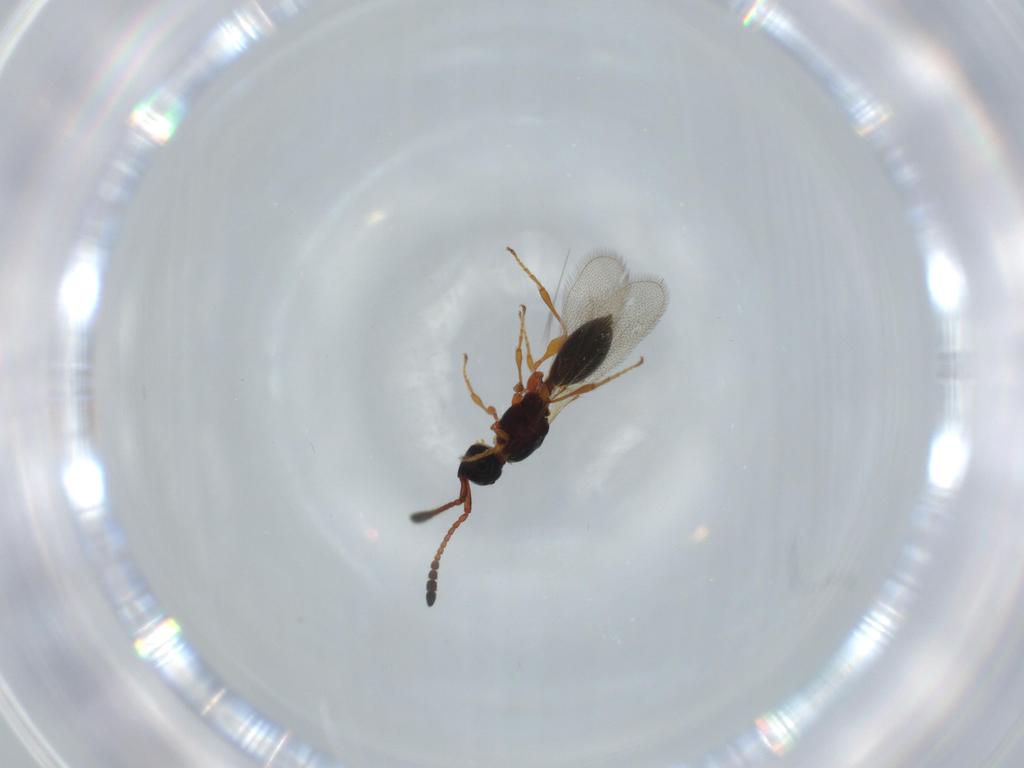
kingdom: Animalia
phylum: Arthropoda
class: Insecta
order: Hymenoptera
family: Diapriidae
